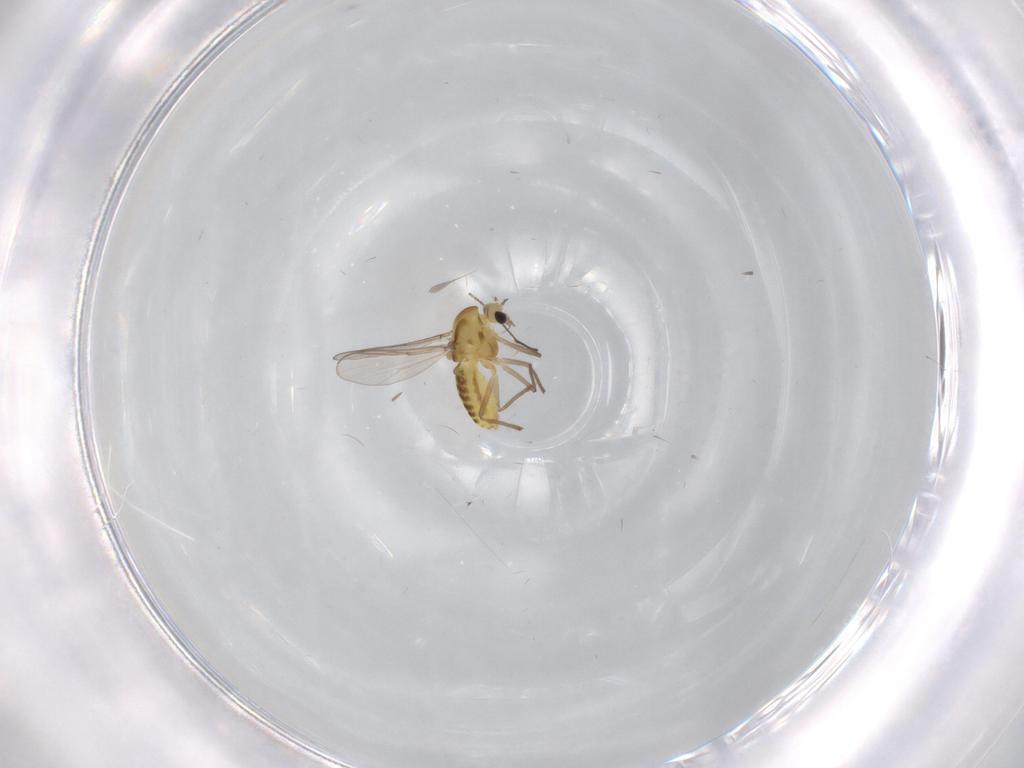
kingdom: Animalia
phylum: Arthropoda
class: Insecta
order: Diptera
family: Chironomidae
